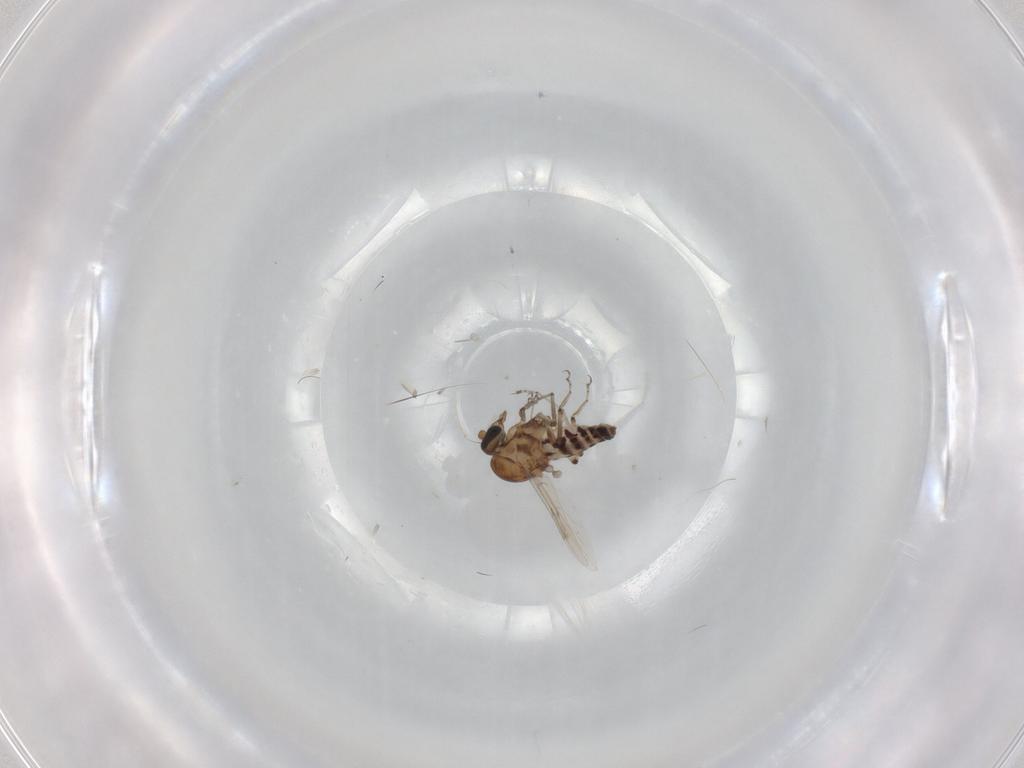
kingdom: Animalia
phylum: Arthropoda
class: Insecta
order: Diptera
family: Ceratopogonidae
